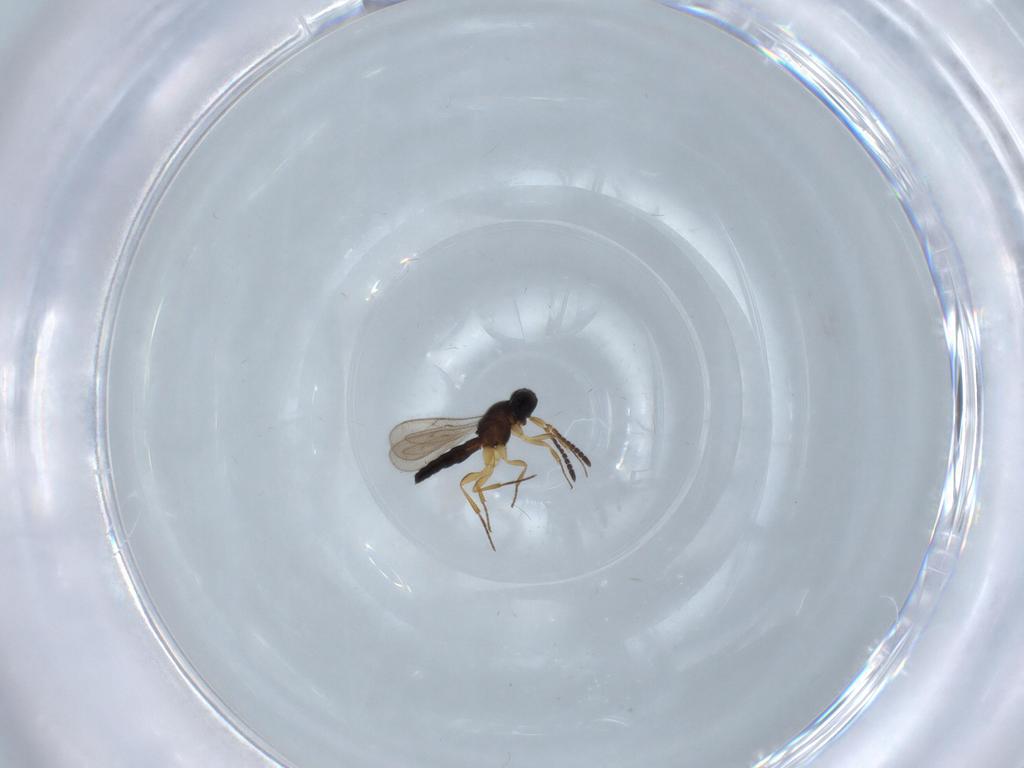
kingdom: Animalia
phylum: Arthropoda
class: Insecta
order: Hymenoptera
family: Scelionidae
